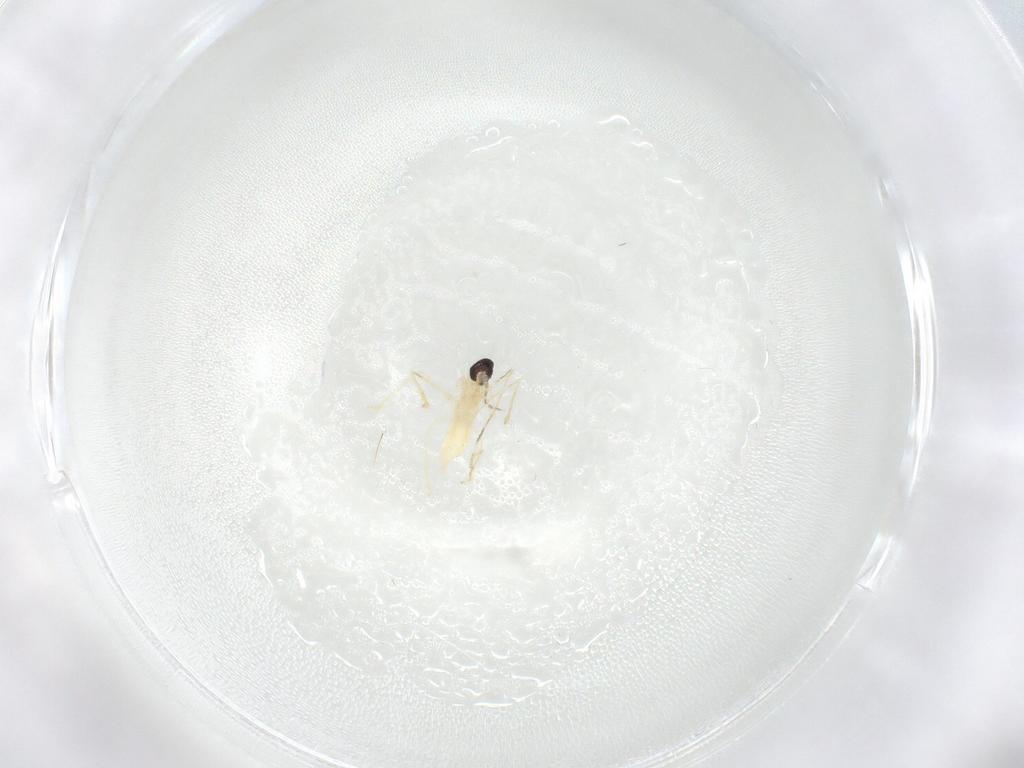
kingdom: Animalia
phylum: Arthropoda
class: Insecta
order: Diptera
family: Cecidomyiidae
